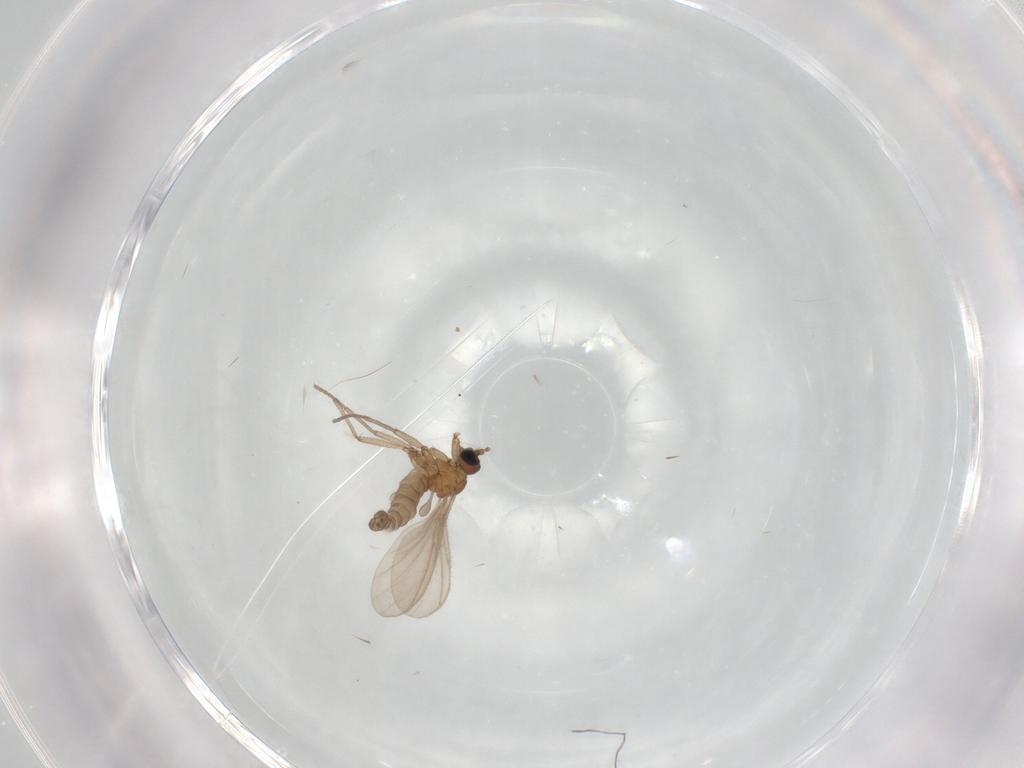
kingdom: Animalia
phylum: Arthropoda
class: Insecta
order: Diptera
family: Sciaridae
